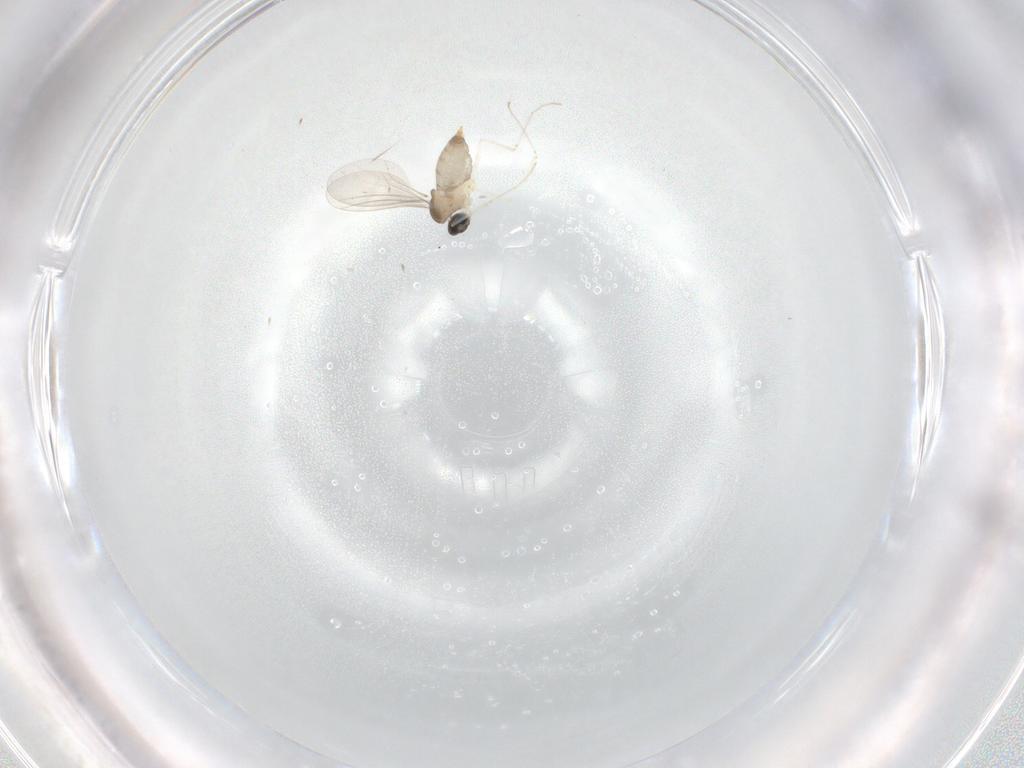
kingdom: Animalia
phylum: Arthropoda
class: Insecta
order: Diptera
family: Cecidomyiidae
